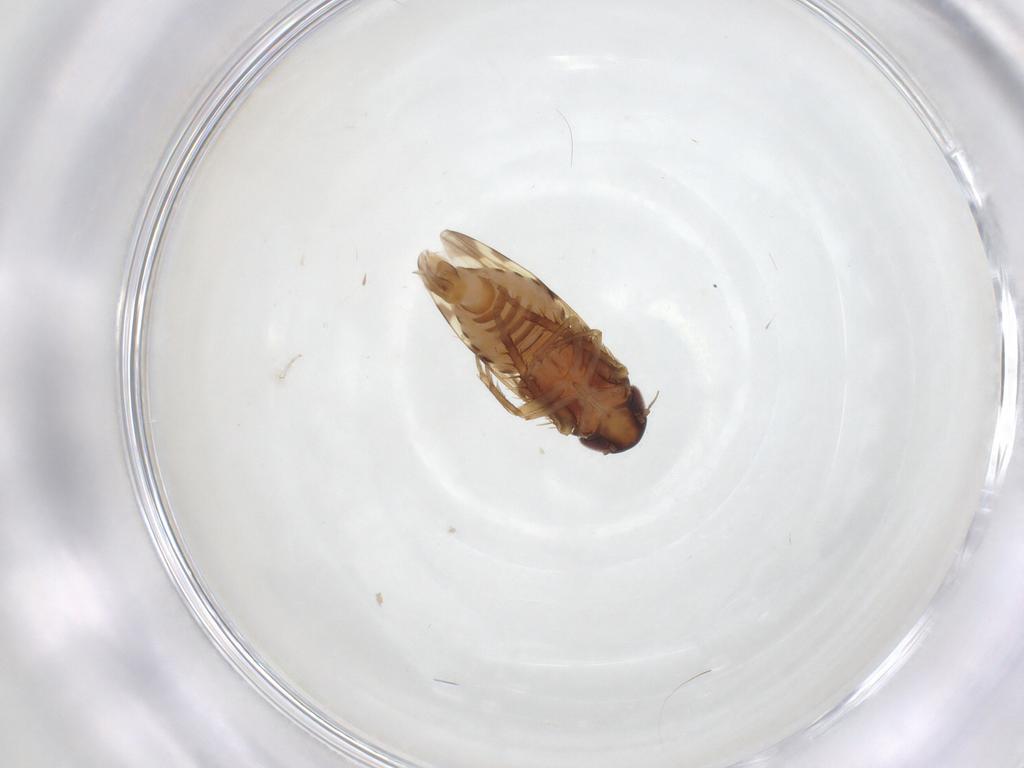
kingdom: Animalia
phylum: Arthropoda
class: Insecta
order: Hemiptera
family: Cicadellidae
